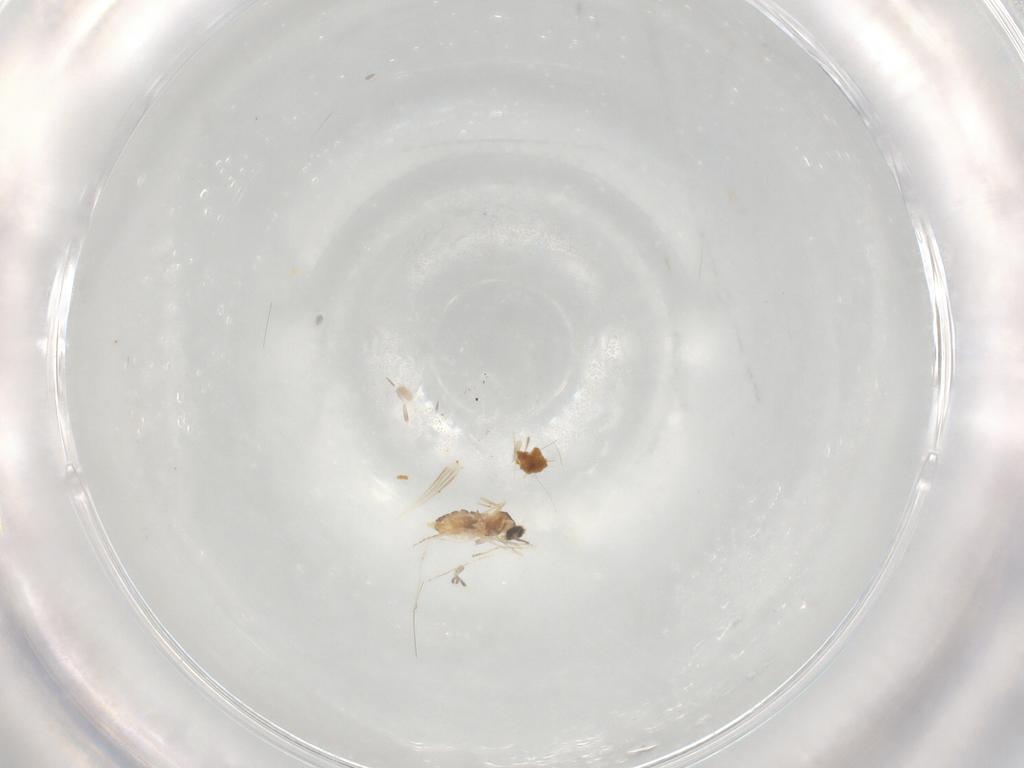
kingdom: Animalia
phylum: Arthropoda
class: Insecta
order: Diptera
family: Cecidomyiidae
